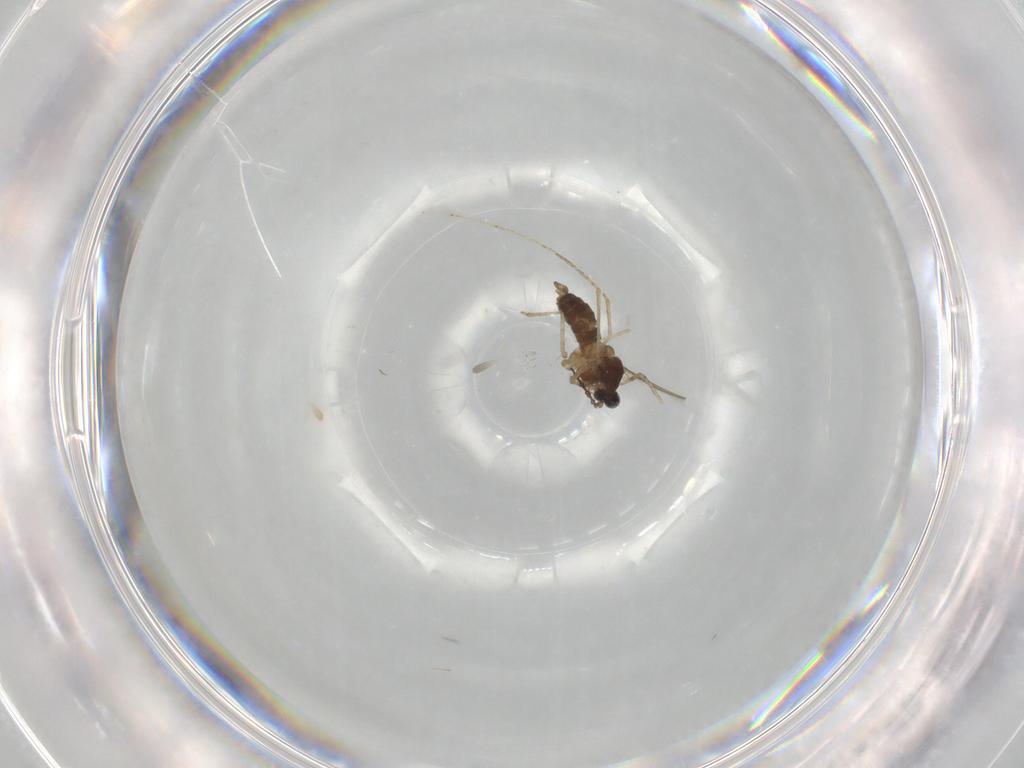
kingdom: Animalia
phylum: Arthropoda
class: Insecta
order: Diptera
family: Cecidomyiidae
